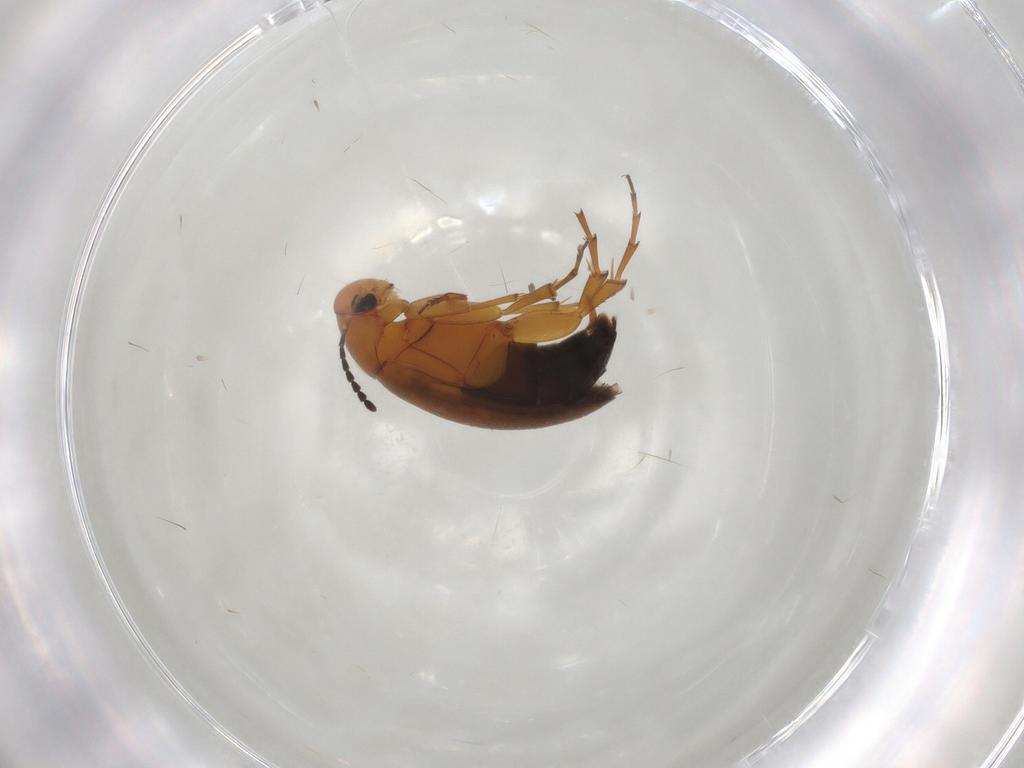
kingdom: Animalia
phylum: Arthropoda
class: Insecta
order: Coleoptera
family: Scraptiidae
